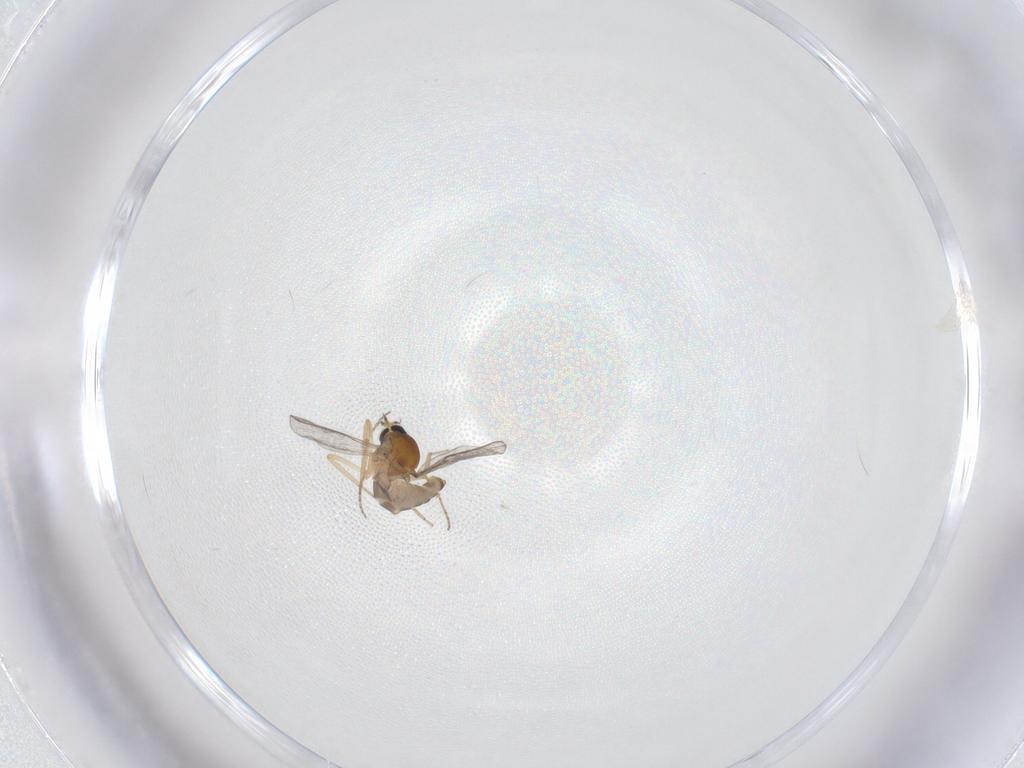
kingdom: Animalia
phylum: Arthropoda
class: Insecta
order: Diptera
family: Ceratopogonidae
